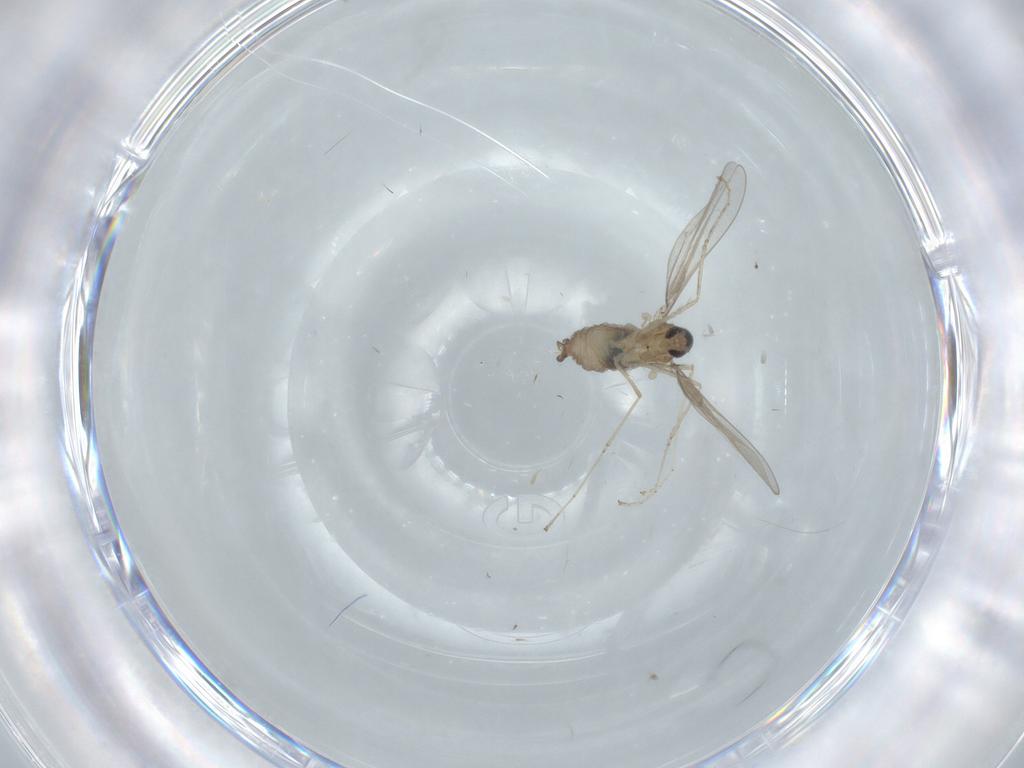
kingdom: Animalia
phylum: Arthropoda
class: Insecta
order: Diptera
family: Cecidomyiidae
